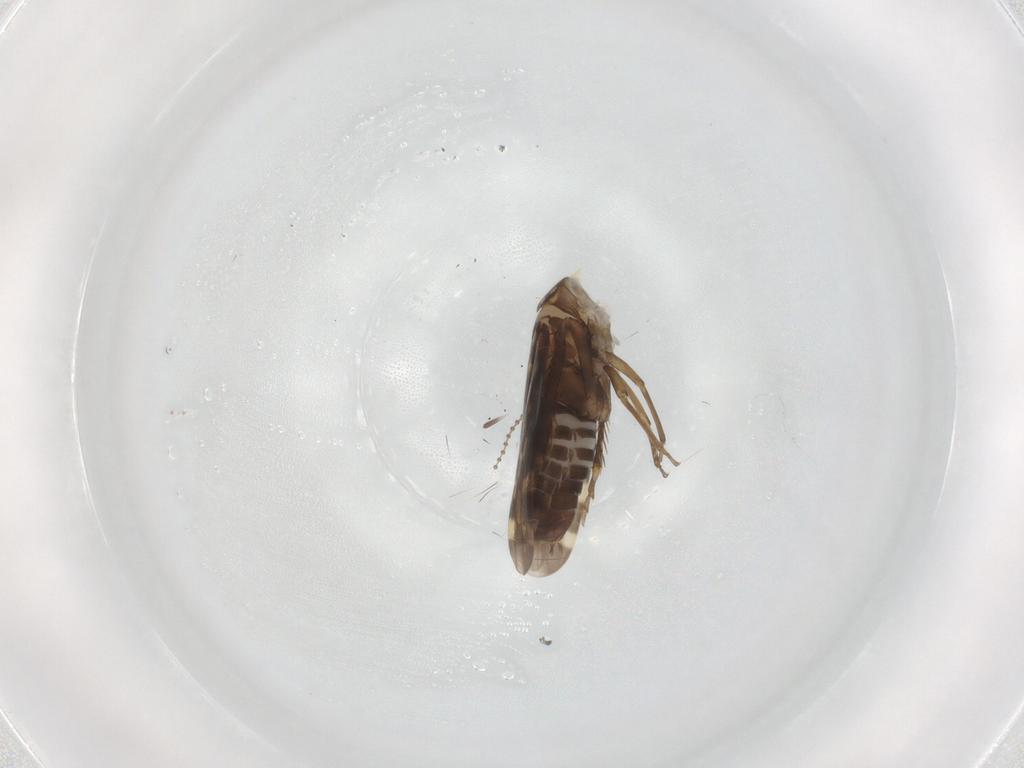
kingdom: Animalia
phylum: Arthropoda
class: Insecta
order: Hemiptera
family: Cicadellidae
